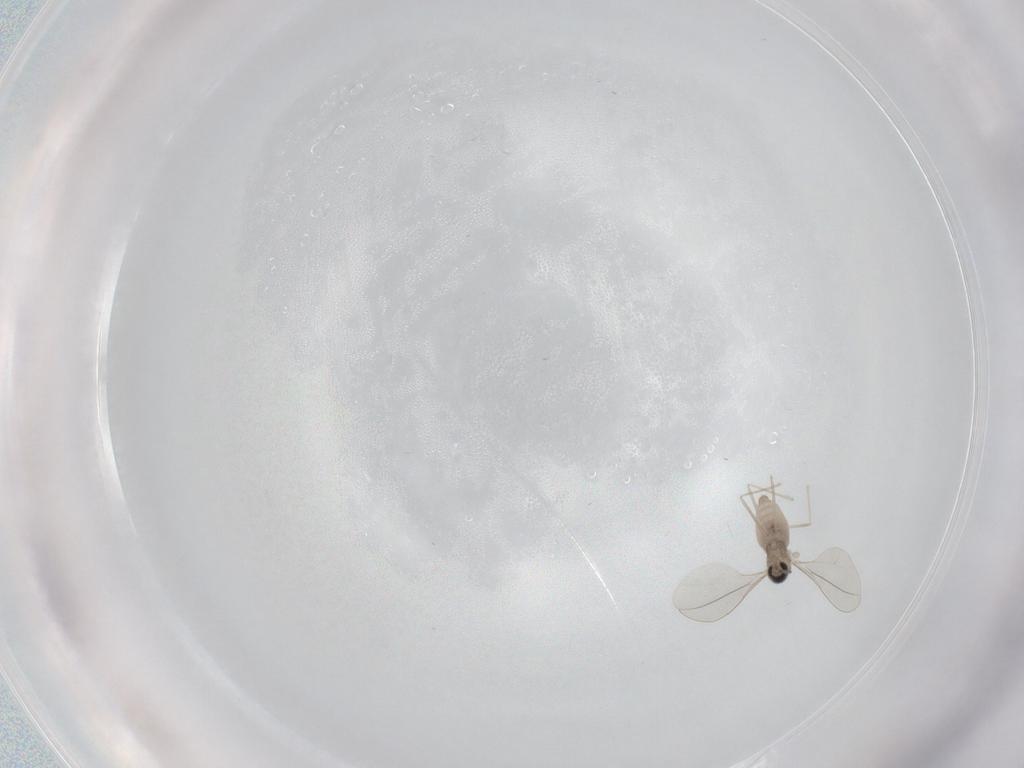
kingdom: Animalia
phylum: Arthropoda
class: Insecta
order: Diptera
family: Cecidomyiidae
